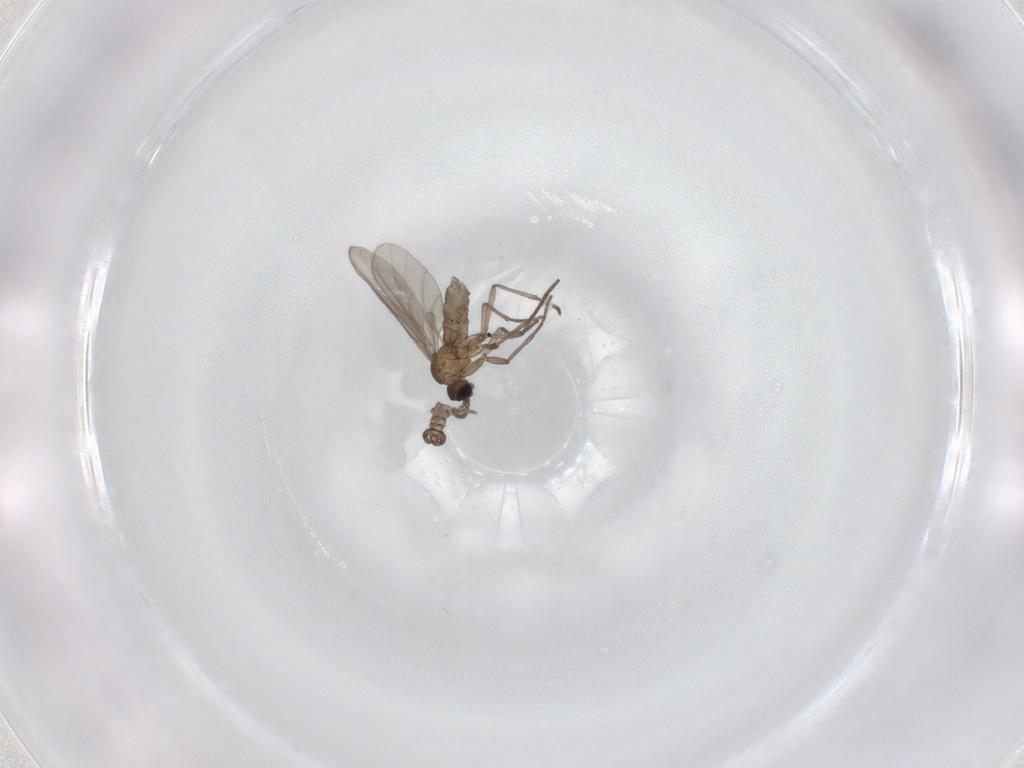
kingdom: Animalia
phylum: Arthropoda
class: Insecta
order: Diptera
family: Sciaridae
